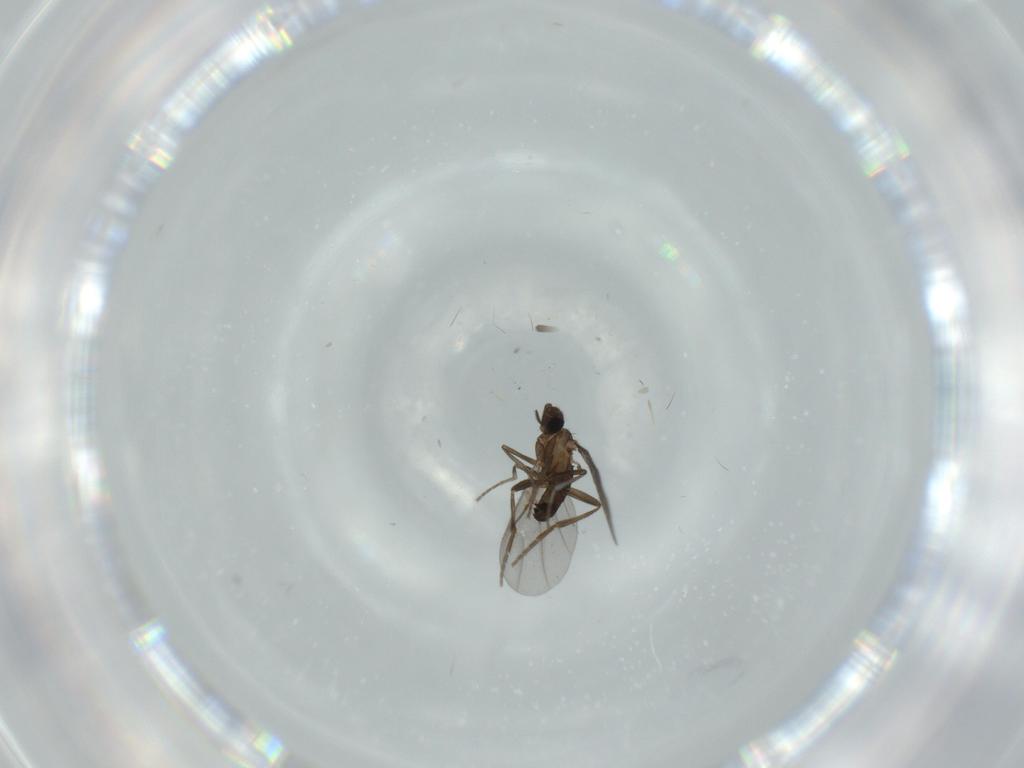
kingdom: Animalia
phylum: Arthropoda
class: Insecta
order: Diptera
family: Phoridae
